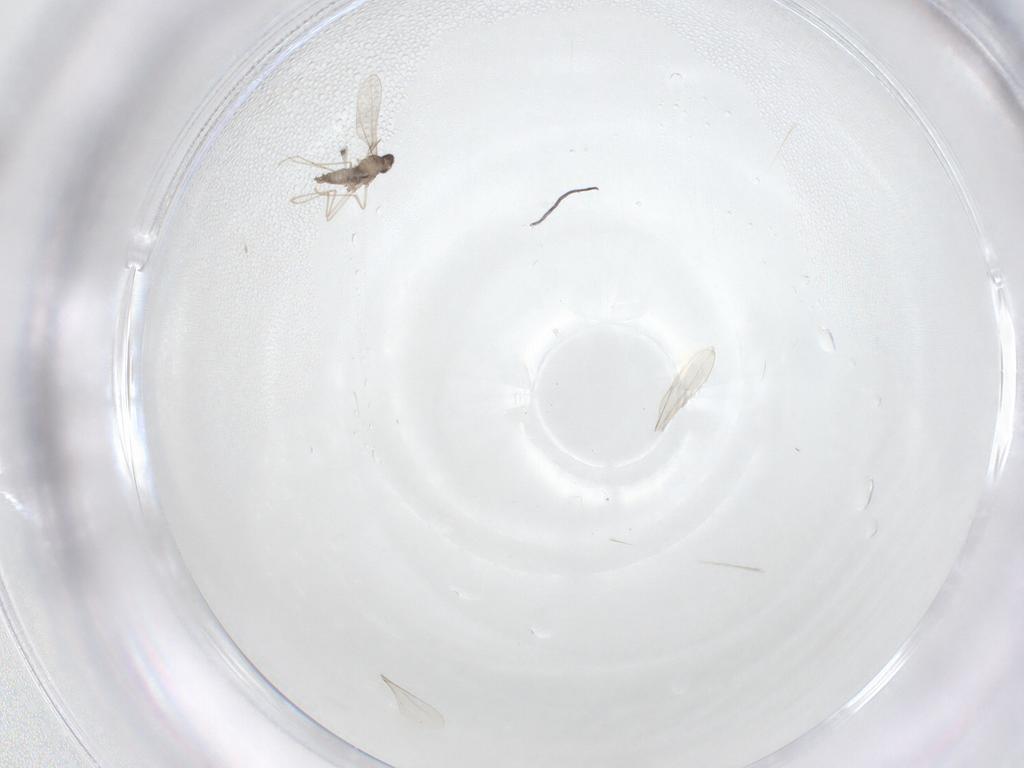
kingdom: Animalia
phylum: Arthropoda
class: Insecta
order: Diptera
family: Cecidomyiidae
